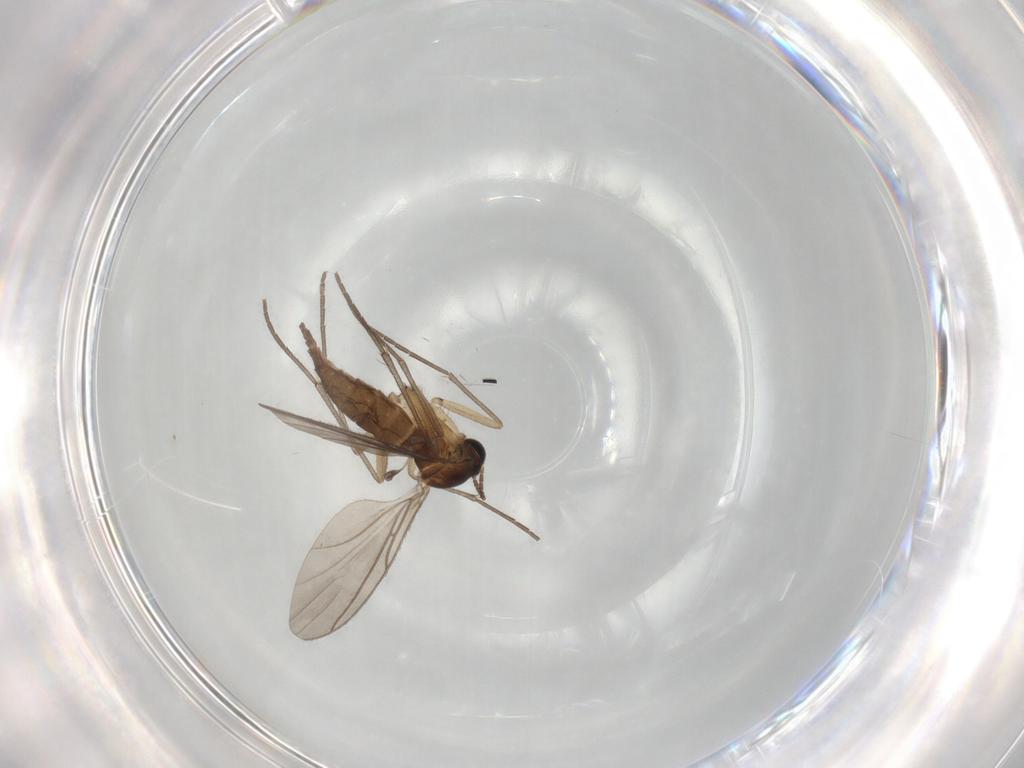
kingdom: Animalia
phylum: Arthropoda
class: Insecta
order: Diptera
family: Sciaridae
